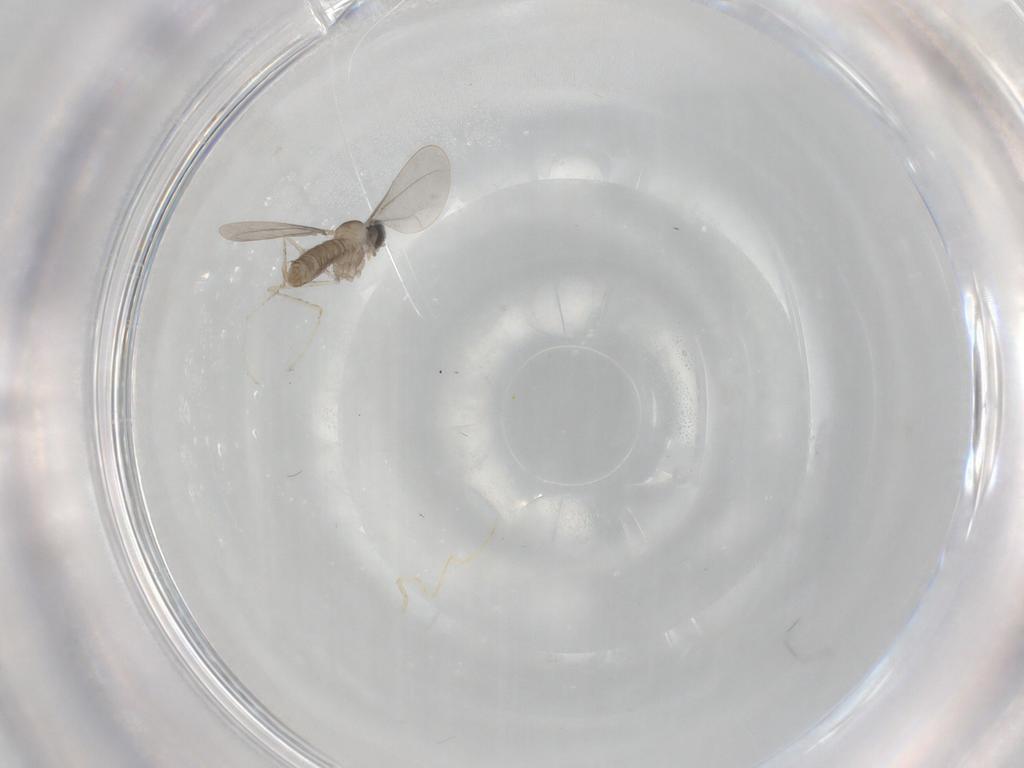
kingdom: Animalia
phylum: Arthropoda
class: Insecta
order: Diptera
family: Cecidomyiidae
